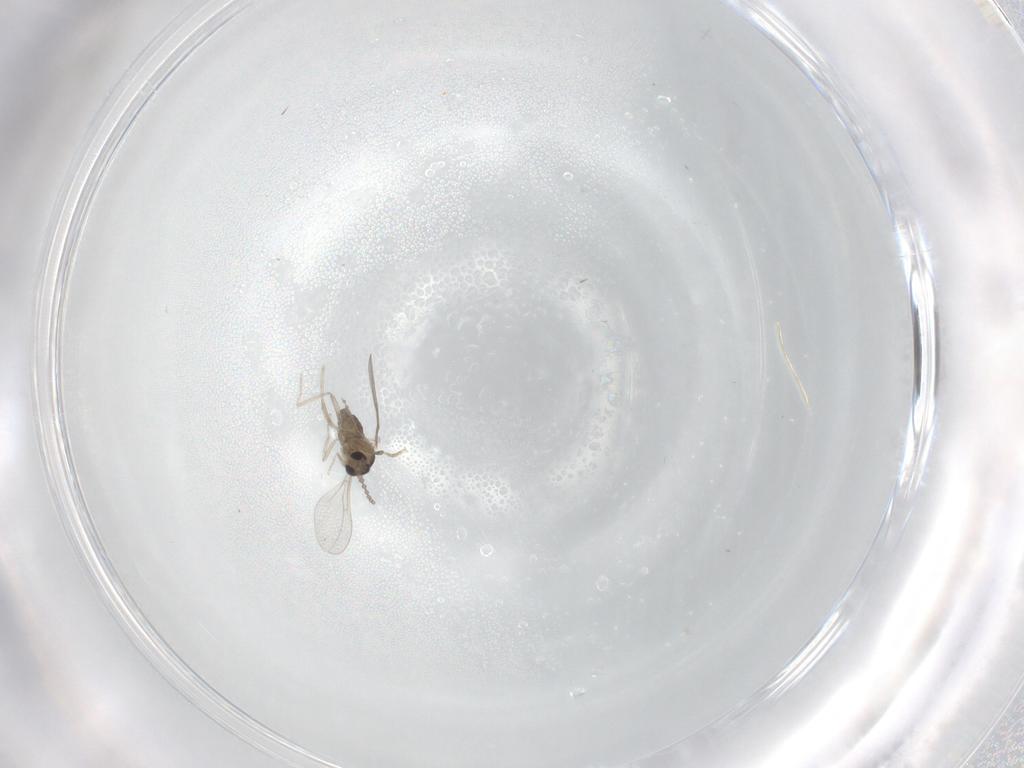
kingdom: Animalia
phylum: Arthropoda
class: Insecta
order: Diptera
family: Cecidomyiidae
